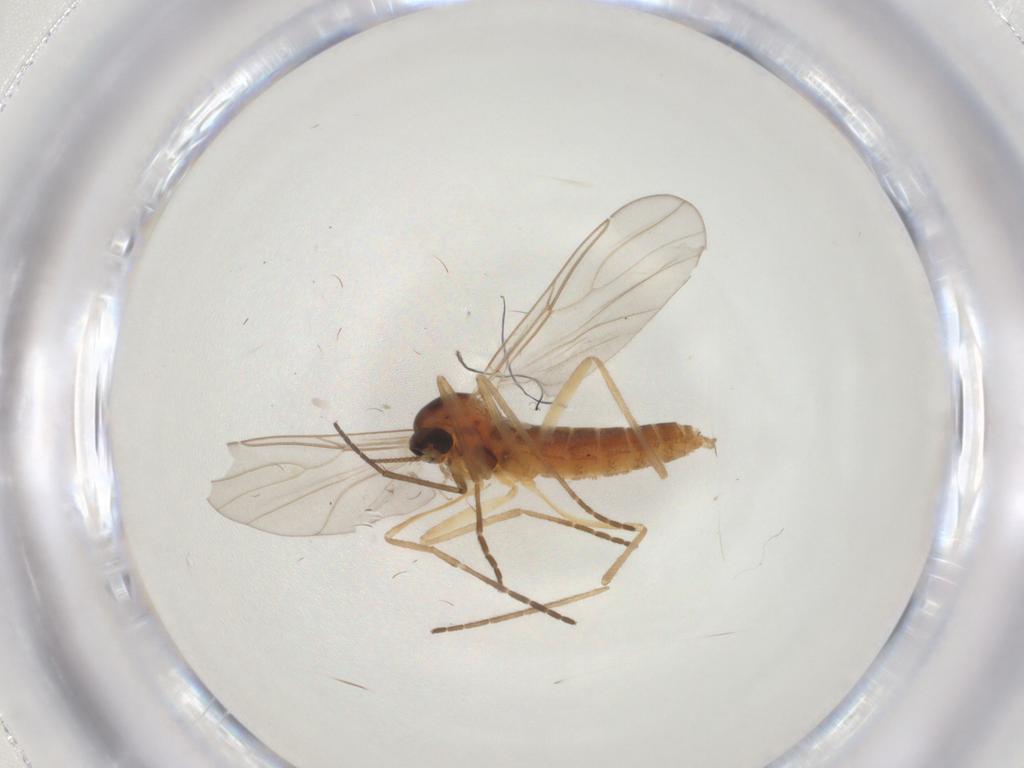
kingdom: Animalia
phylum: Arthropoda
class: Insecta
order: Diptera
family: Cecidomyiidae
